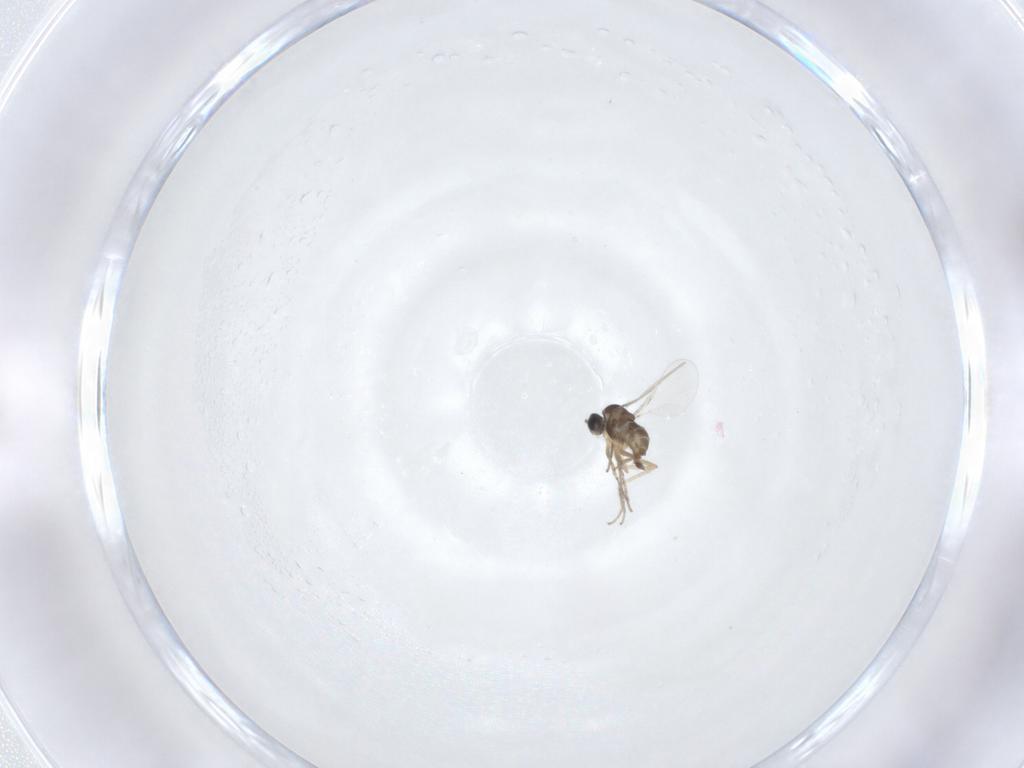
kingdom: Animalia
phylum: Arthropoda
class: Insecta
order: Diptera
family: Cecidomyiidae
